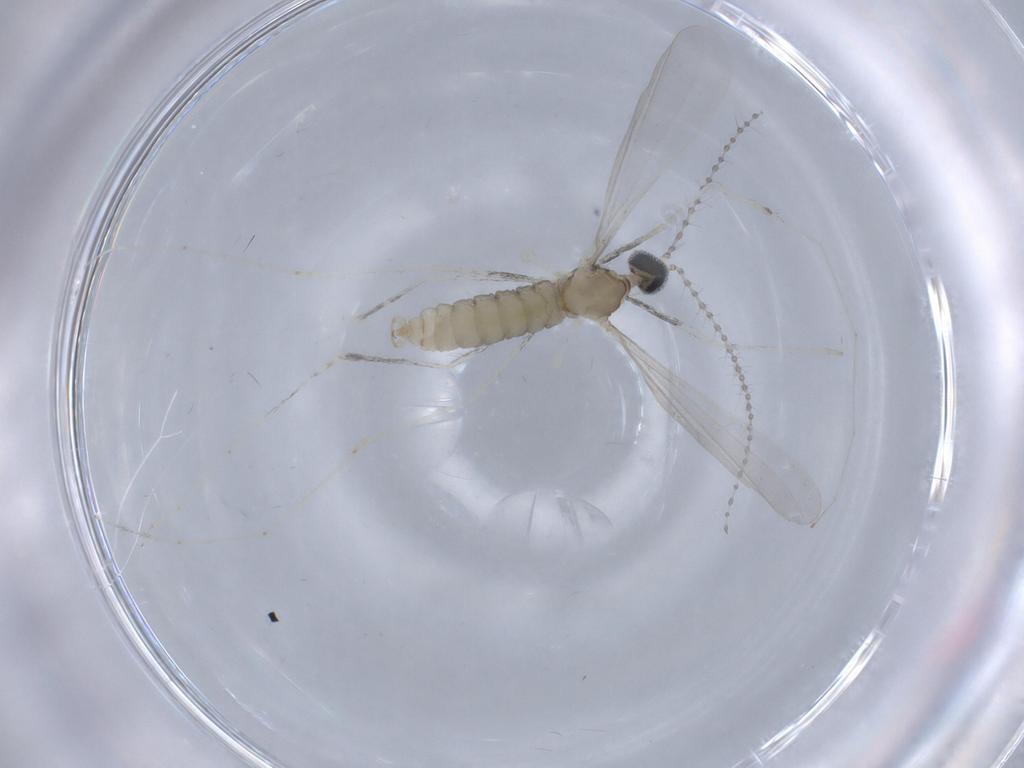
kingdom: Animalia
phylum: Arthropoda
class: Insecta
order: Diptera
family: Cecidomyiidae
